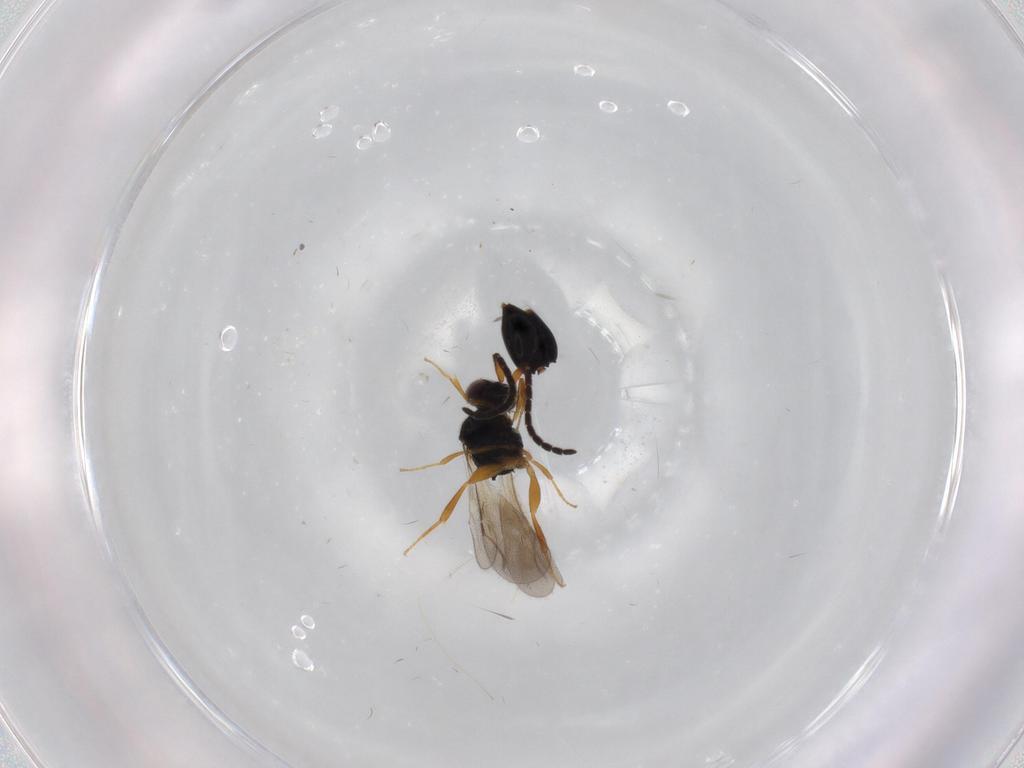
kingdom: Animalia
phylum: Arthropoda
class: Insecta
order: Hymenoptera
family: Ceraphronidae
